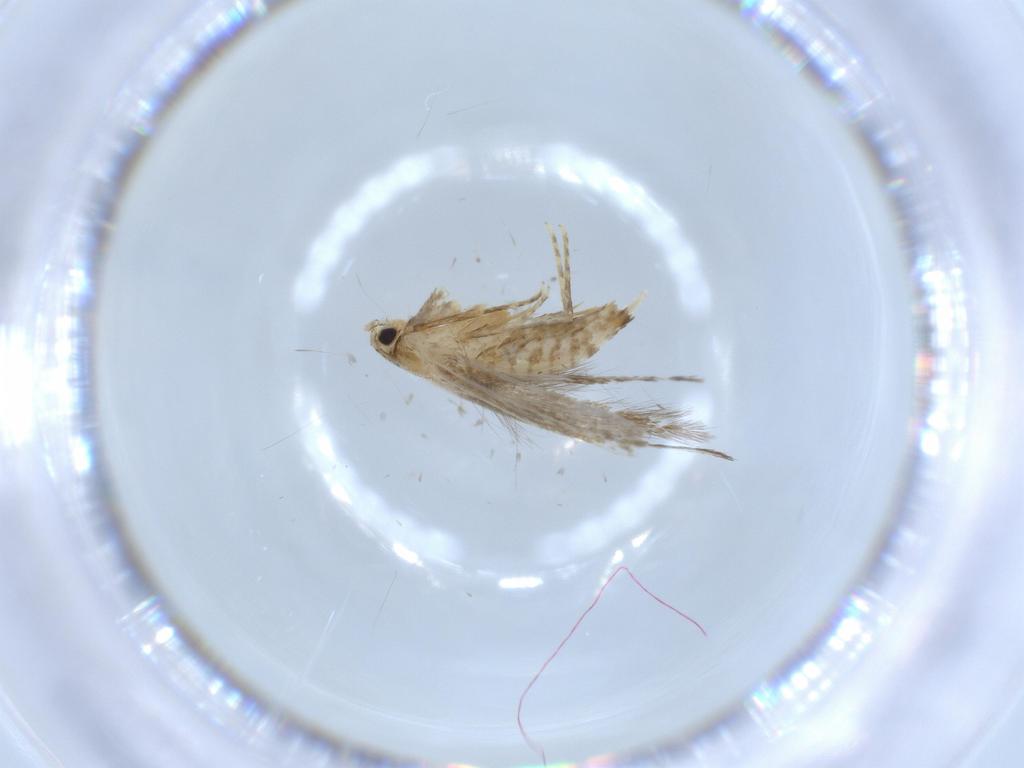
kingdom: Animalia
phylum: Arthropoda
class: Insecta
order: Lepidoptera
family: Tineidae
